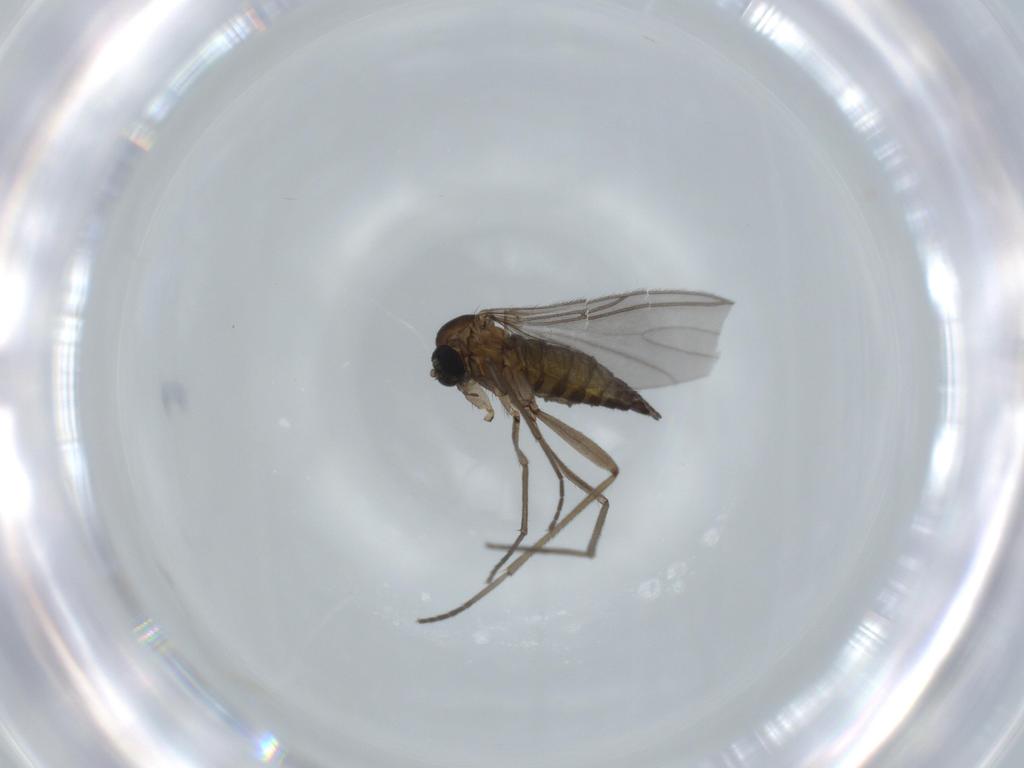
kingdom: Animalia
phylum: Arthropoda
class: Insecta
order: Diptera
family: Sciaridae
